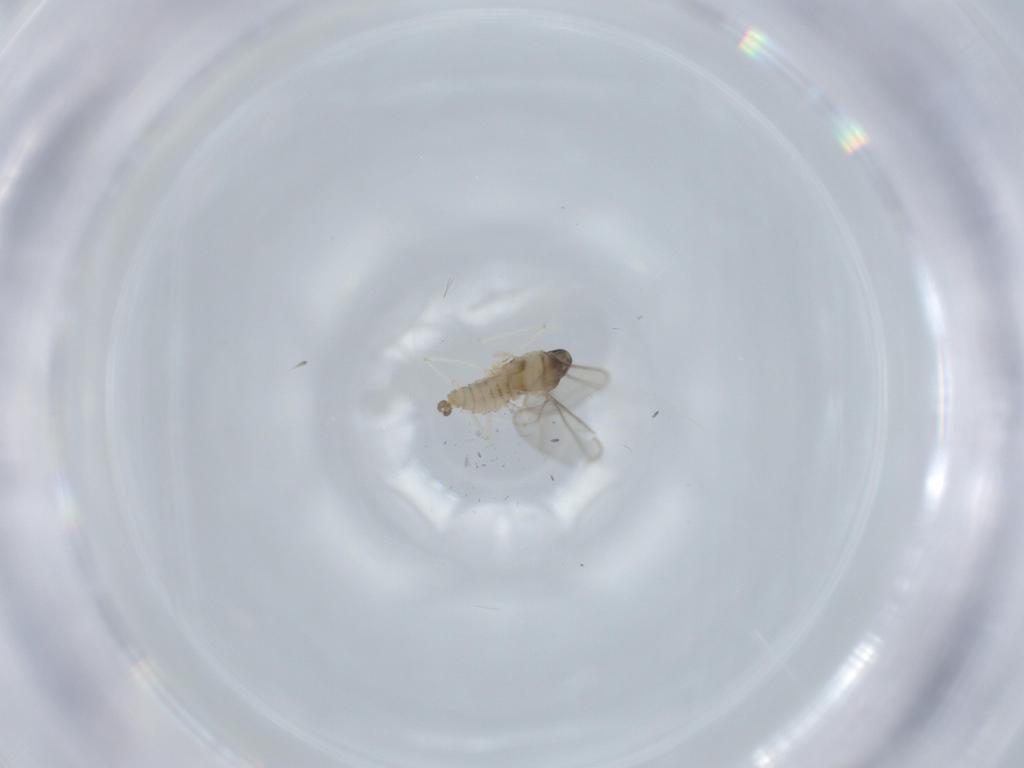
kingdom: Animalia
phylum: Arthropoda
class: Insecta
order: Diptera
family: Cecidomyiidae
